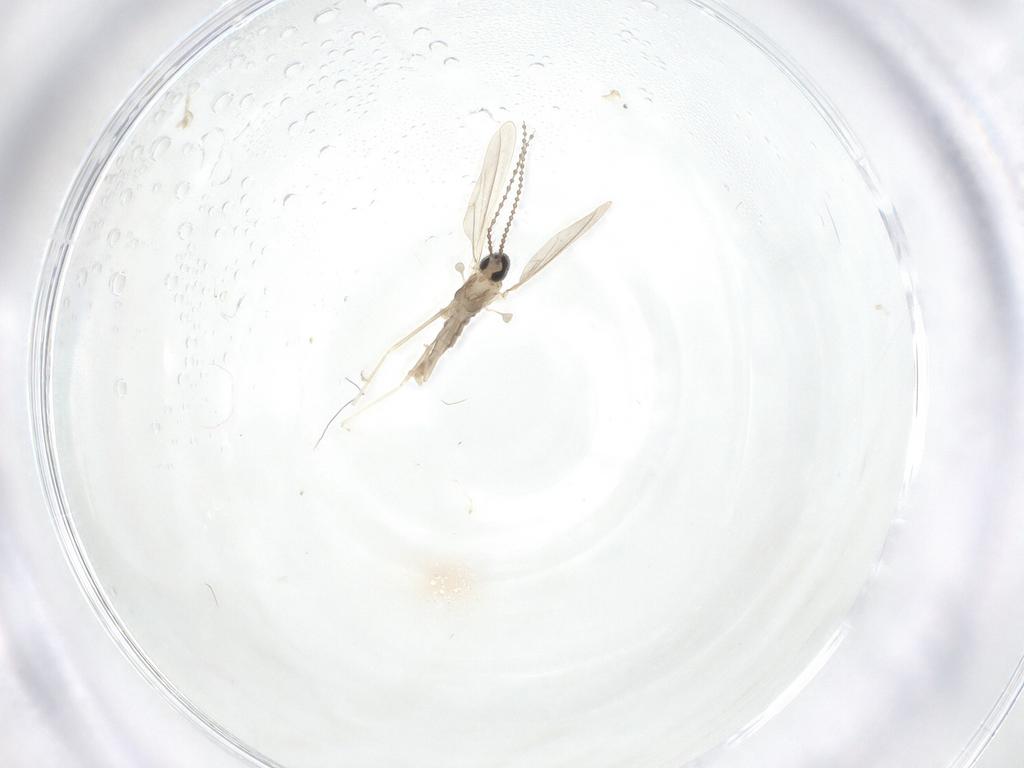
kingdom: Animalia
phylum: Arthropoda
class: Insecta
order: Diptera
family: Cecidomyiidae
